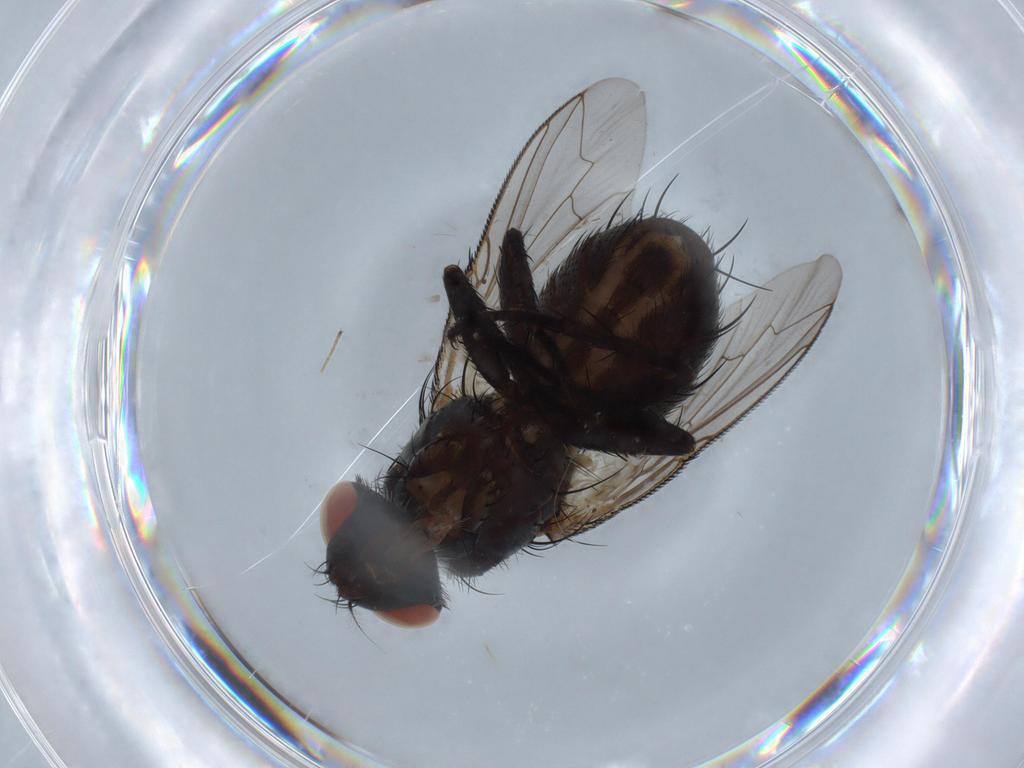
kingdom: Animalia
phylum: Arthropoda
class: Insecta
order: Diptera
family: Sarcophagidae
